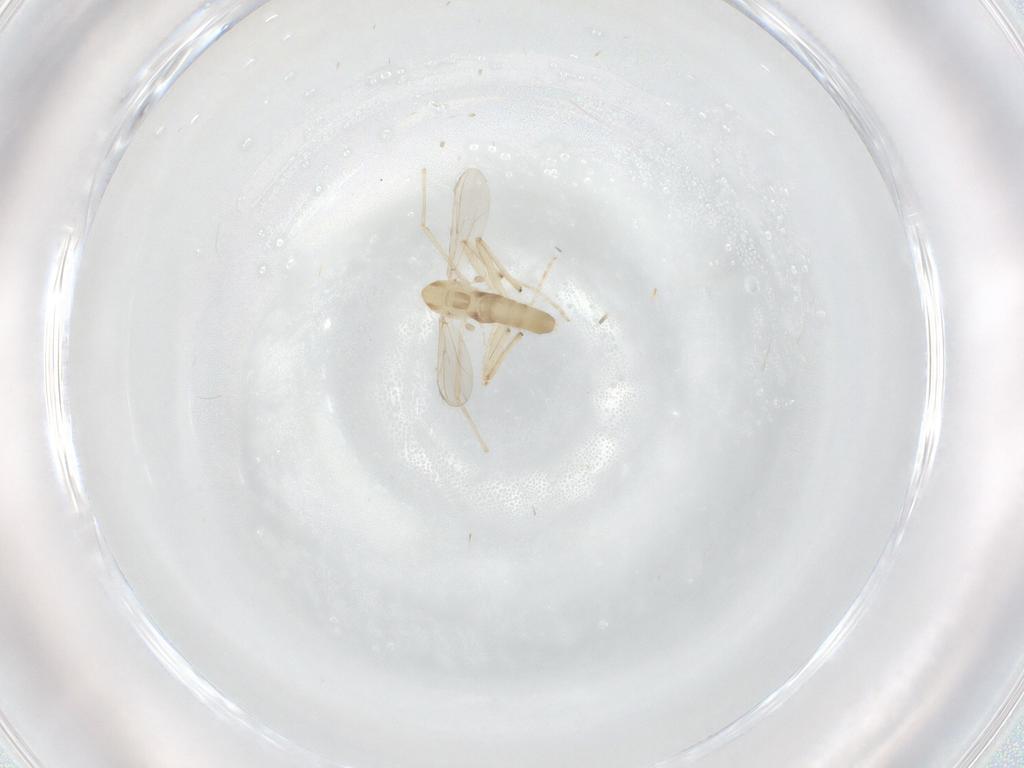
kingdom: Animalia
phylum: Arthropoda
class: Insecta
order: Diptera
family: Chironomidae
